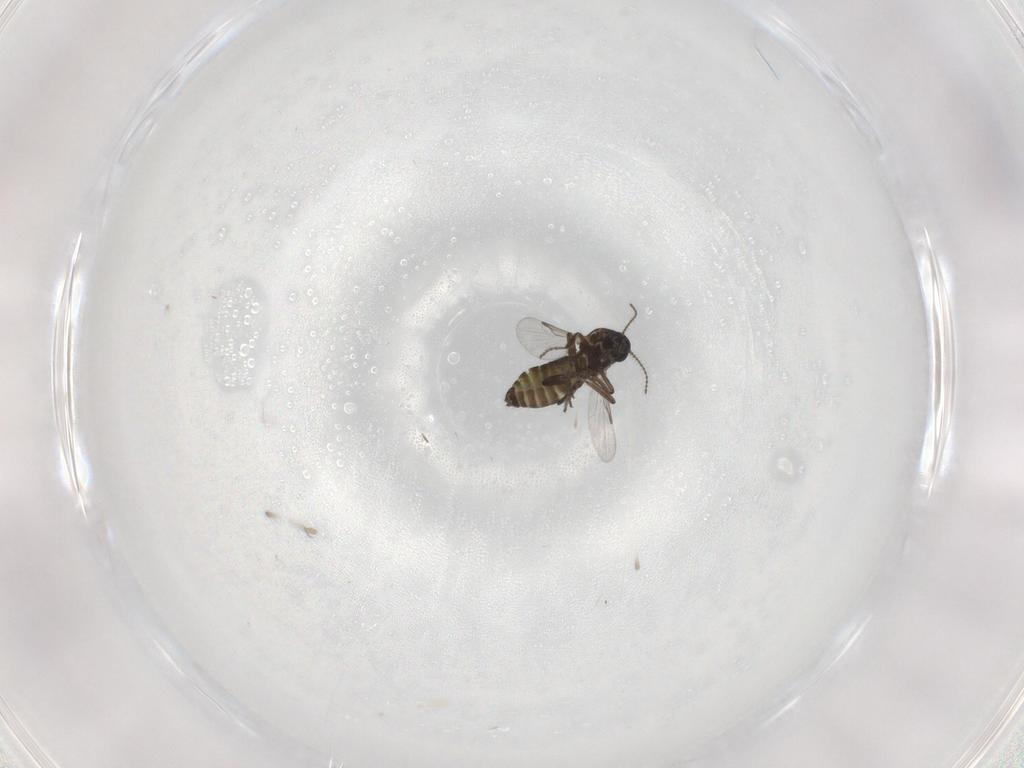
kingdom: Animalia
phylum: Arthropoda
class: Insecta
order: Diptera
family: Ceratopogonidae
